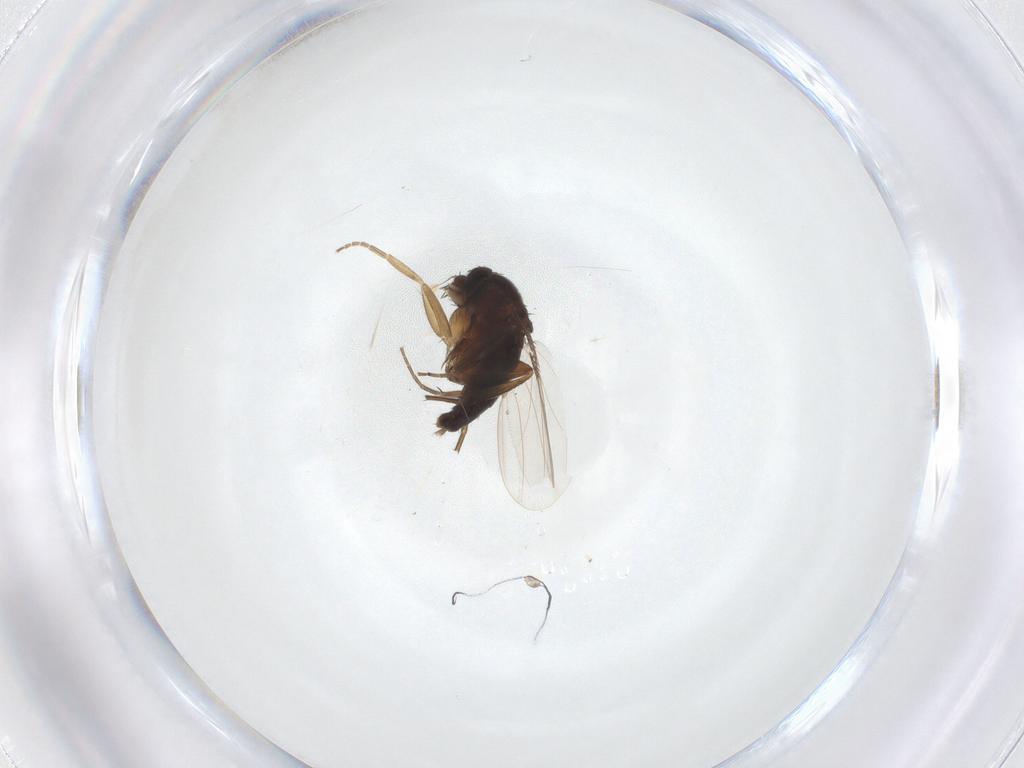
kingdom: Animalia
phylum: Arthropoda
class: Insecta
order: Diptera
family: Phoridae
